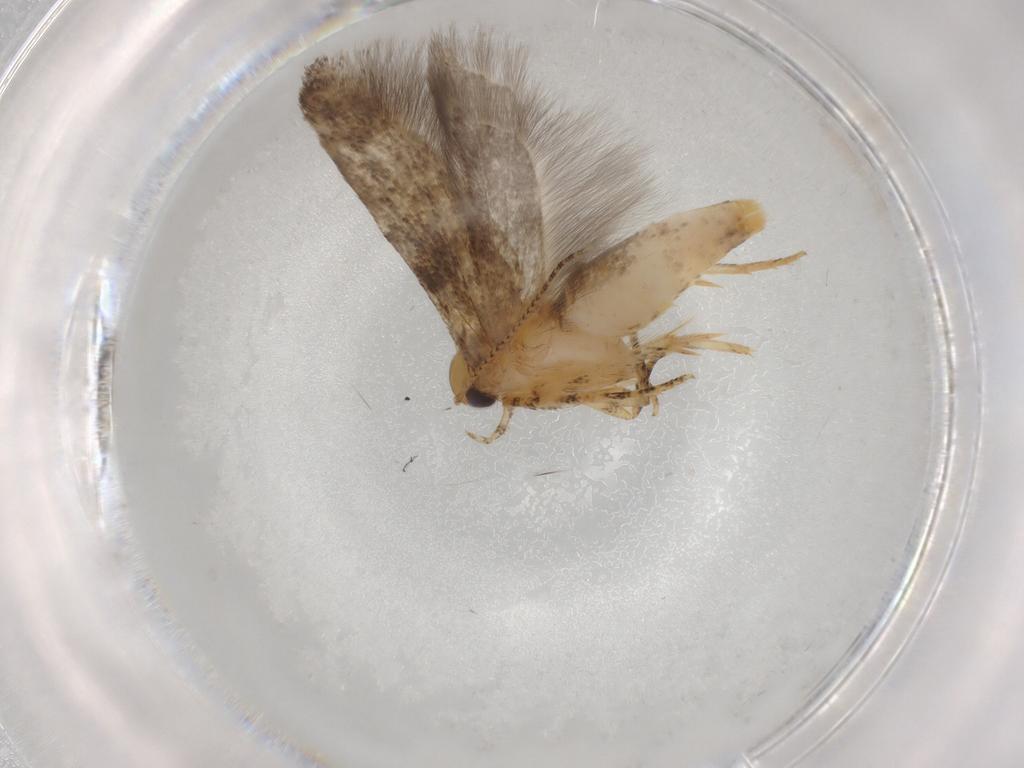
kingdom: Animalia
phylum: Arthropoda
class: Insecta
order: Lepidoptera
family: Gelechiidae
